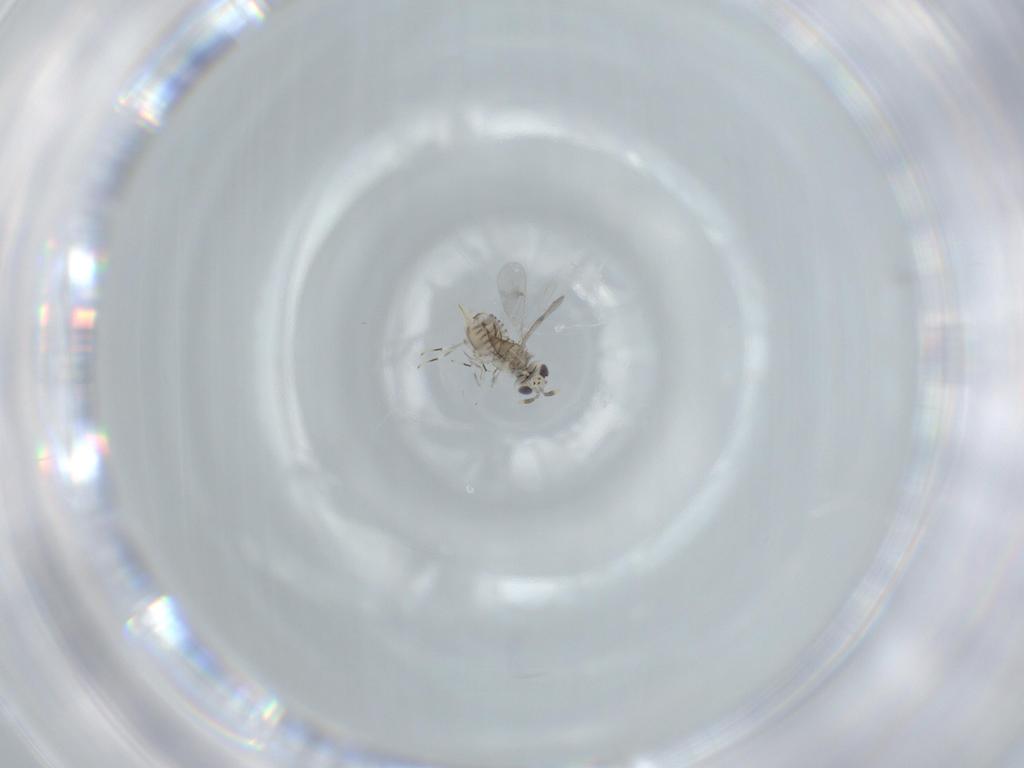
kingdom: Animalia
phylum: Arthropoda
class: Insecta
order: Hymenoptera
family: Aphelinidae
